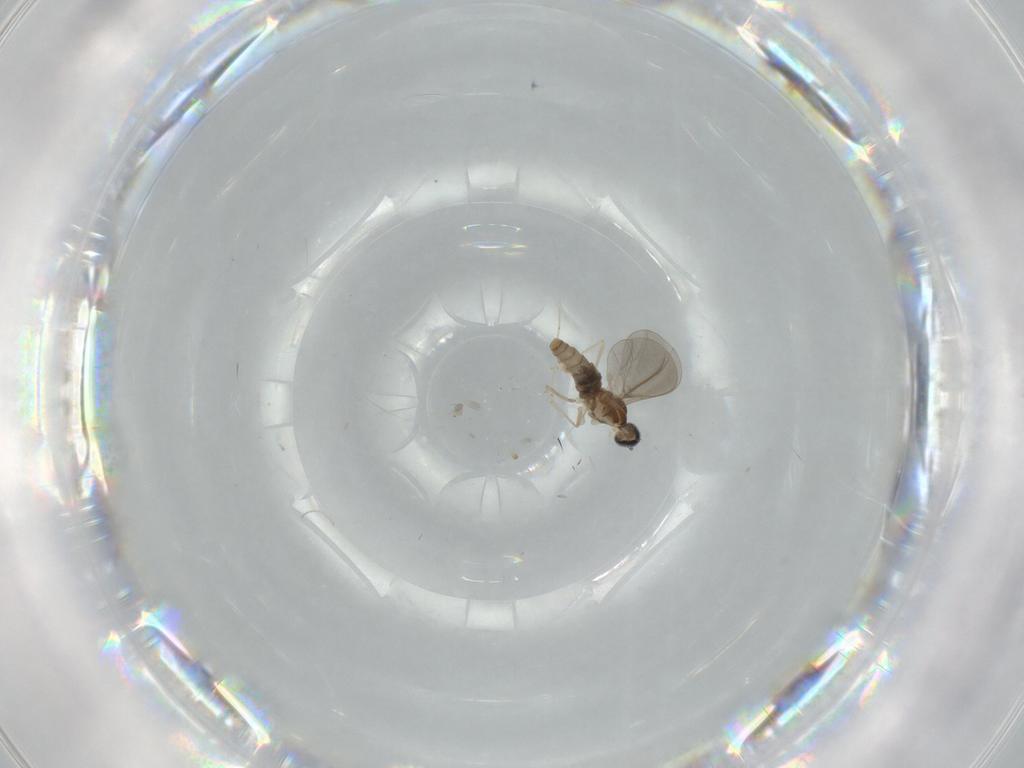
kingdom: Animalia
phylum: Arthropoda
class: Insecta
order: Diptera
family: Cecidomyiidae
